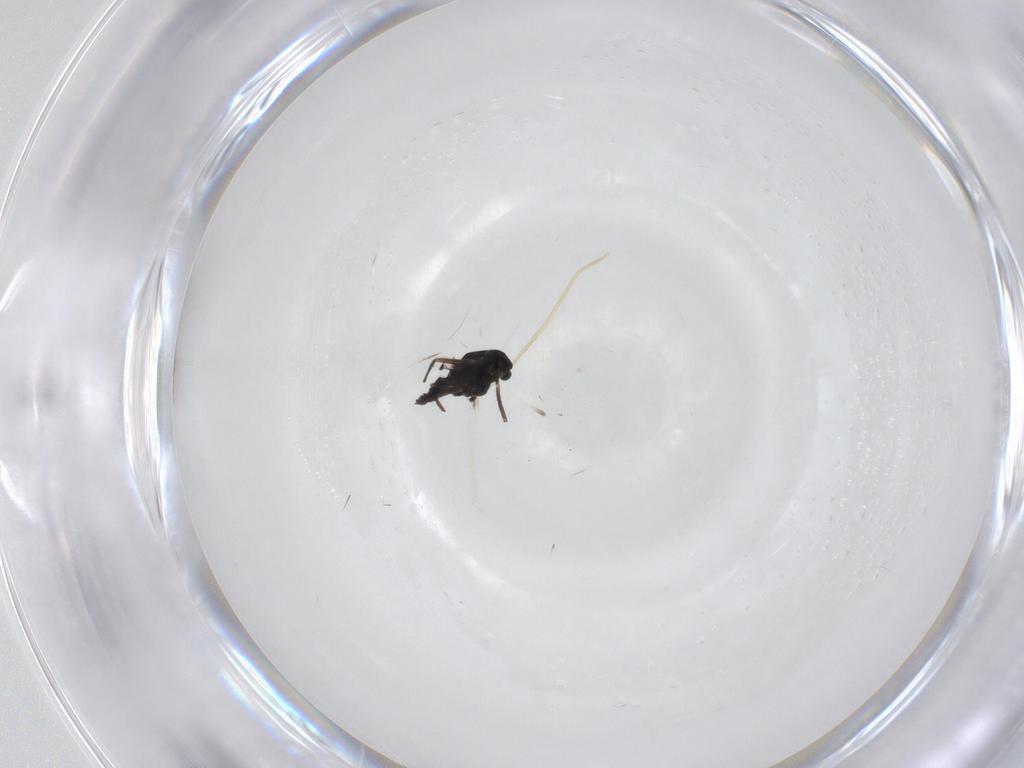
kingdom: Animalia
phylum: Arthropoda
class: Insecta
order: Diptera
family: Chironomidae
